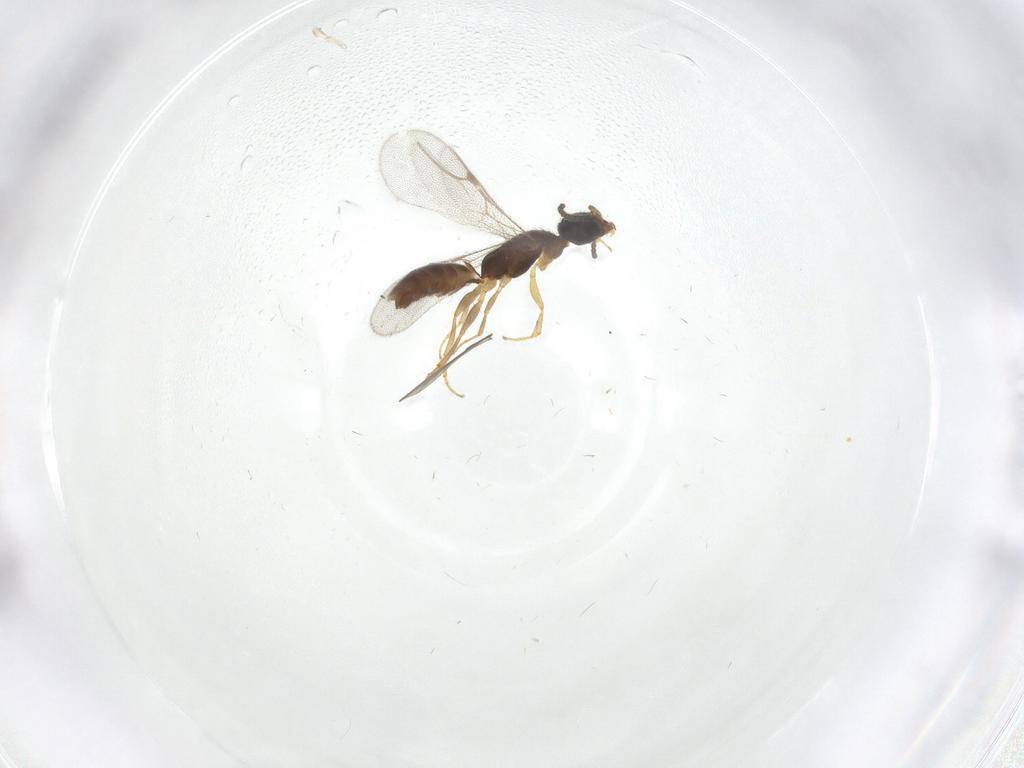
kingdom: Animalia
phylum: Arthropoda
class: Insecta
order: Hymenoptera
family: Bethylidae
